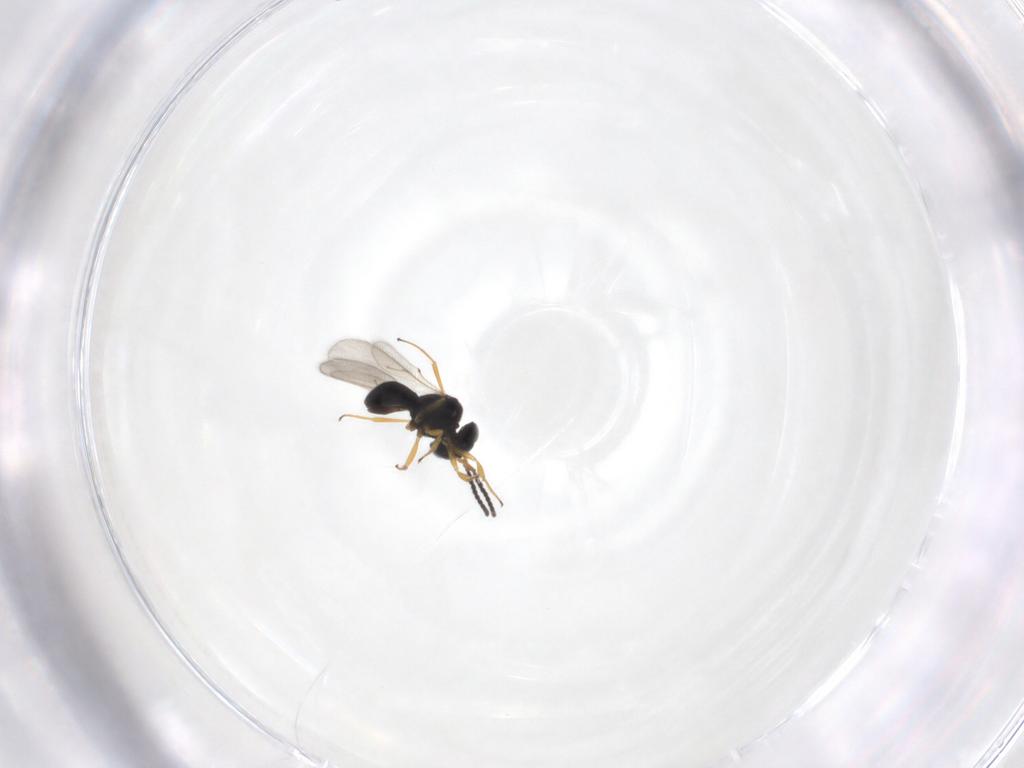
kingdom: Animalia
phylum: Arthropoda
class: Insecta
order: Hymenoptera
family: Scelionidae
